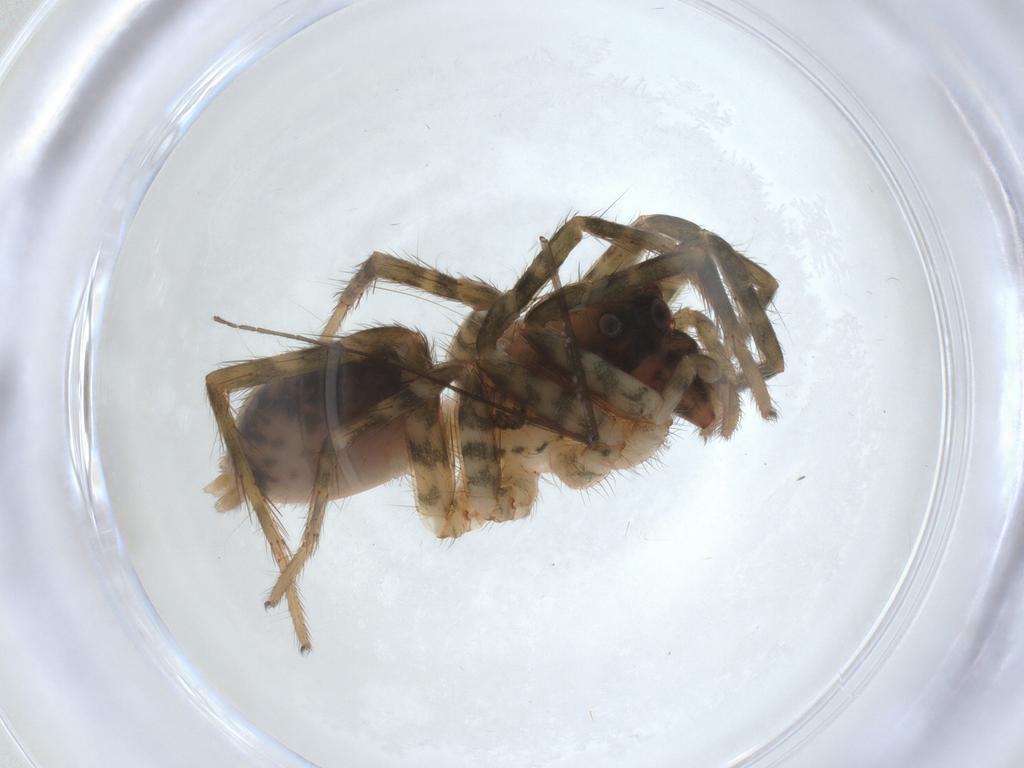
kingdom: Animalia
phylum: Arthropoda
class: Arachnida
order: Araneae
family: Lycosidae
